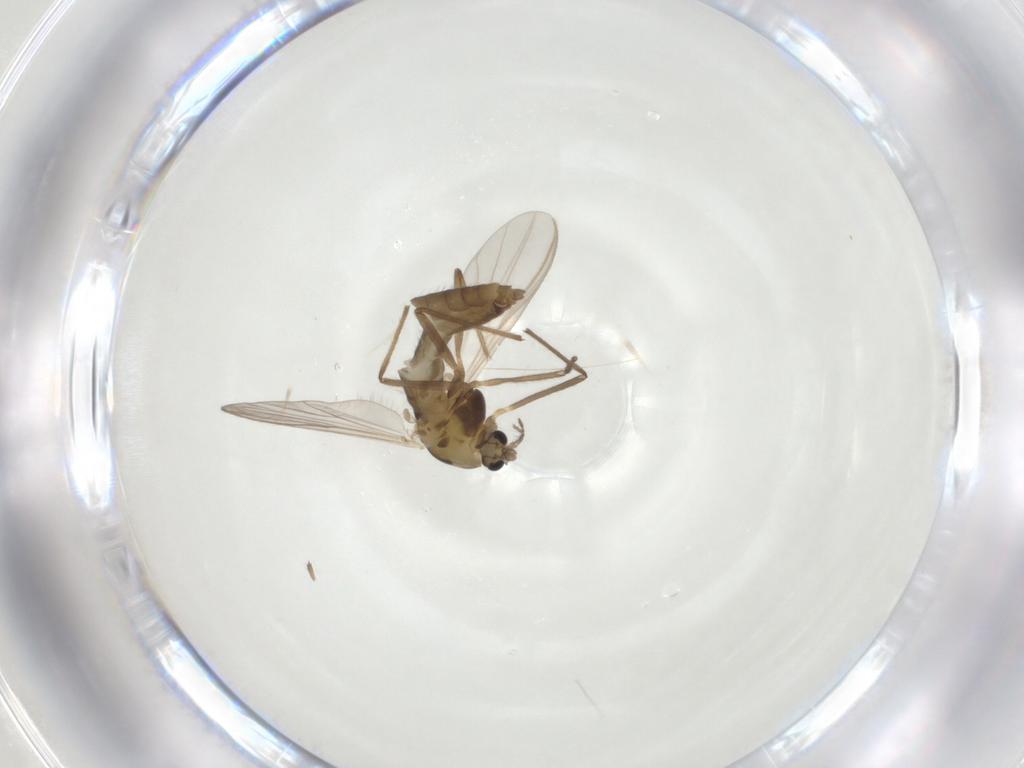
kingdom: Animalia
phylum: Arthropoda
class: Insecta
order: Diptera
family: Chironomidae
